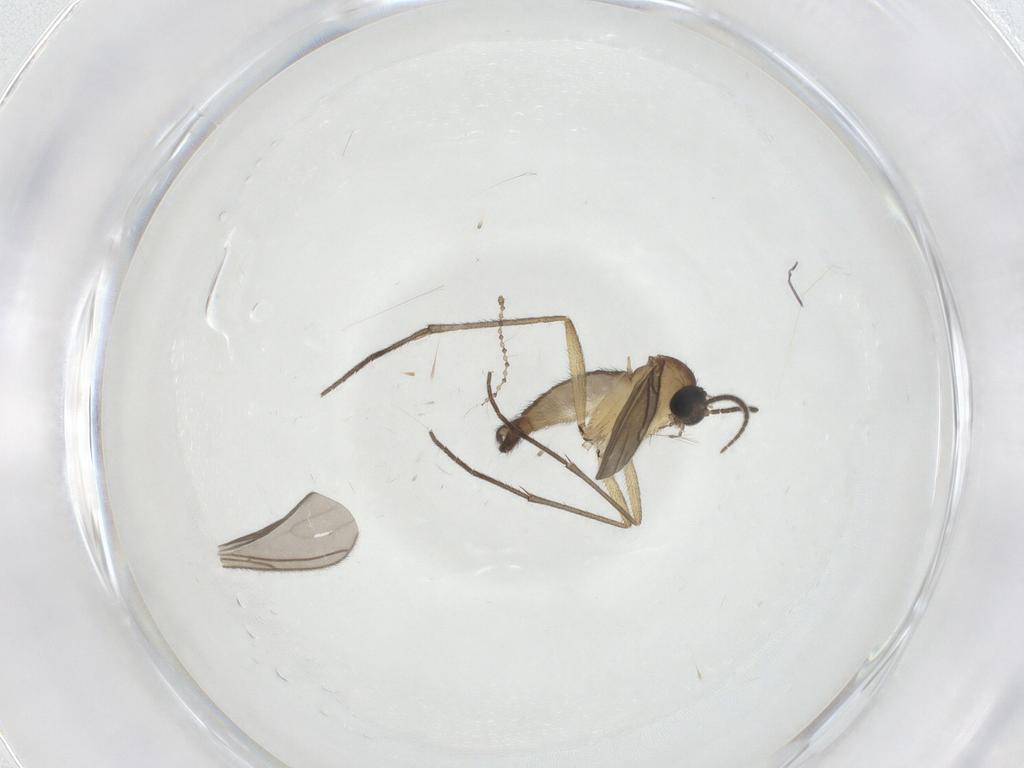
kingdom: Animalia
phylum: Arthropoda
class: Insecta
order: Diptera
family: Sciaridae
